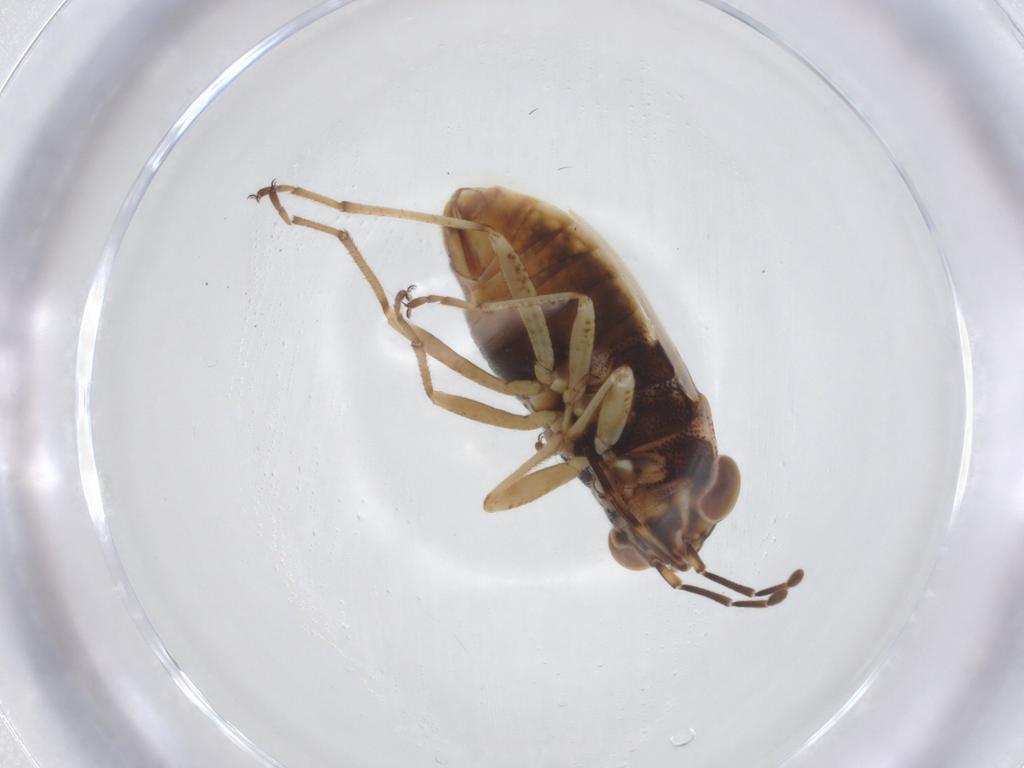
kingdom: Animalia
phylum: Arthropoda
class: Insecta
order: Hemiptera
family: Geocoridae
